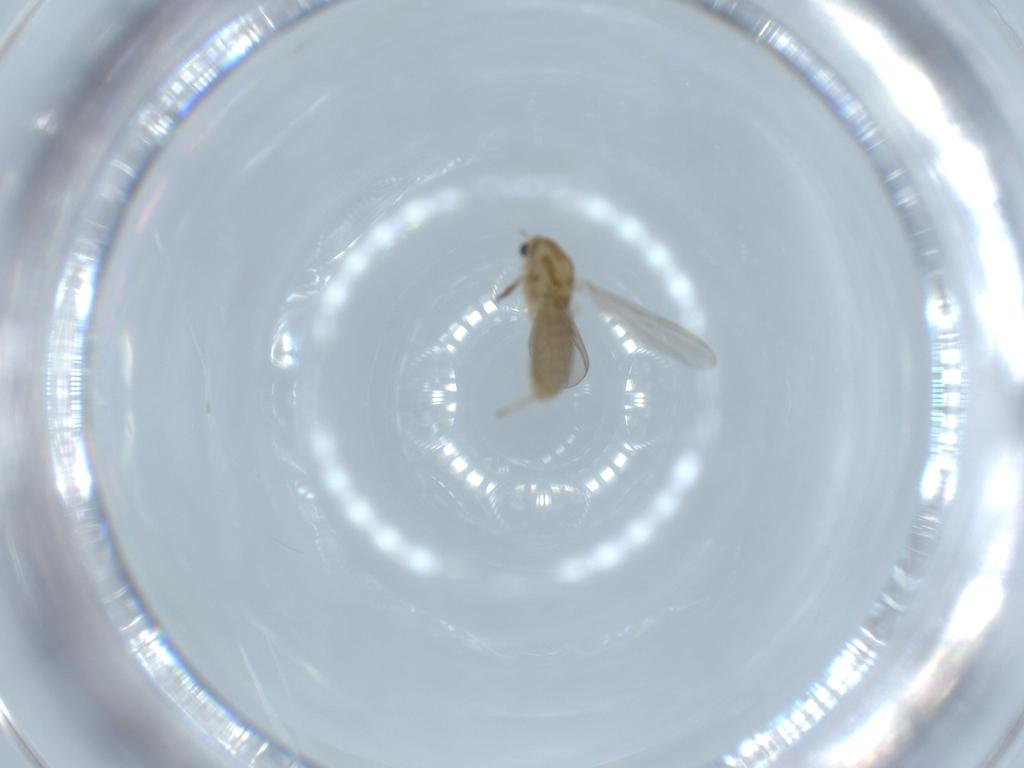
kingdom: Animalia
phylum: Arthropoda
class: Insecta
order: Diptera
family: Chironomidae
